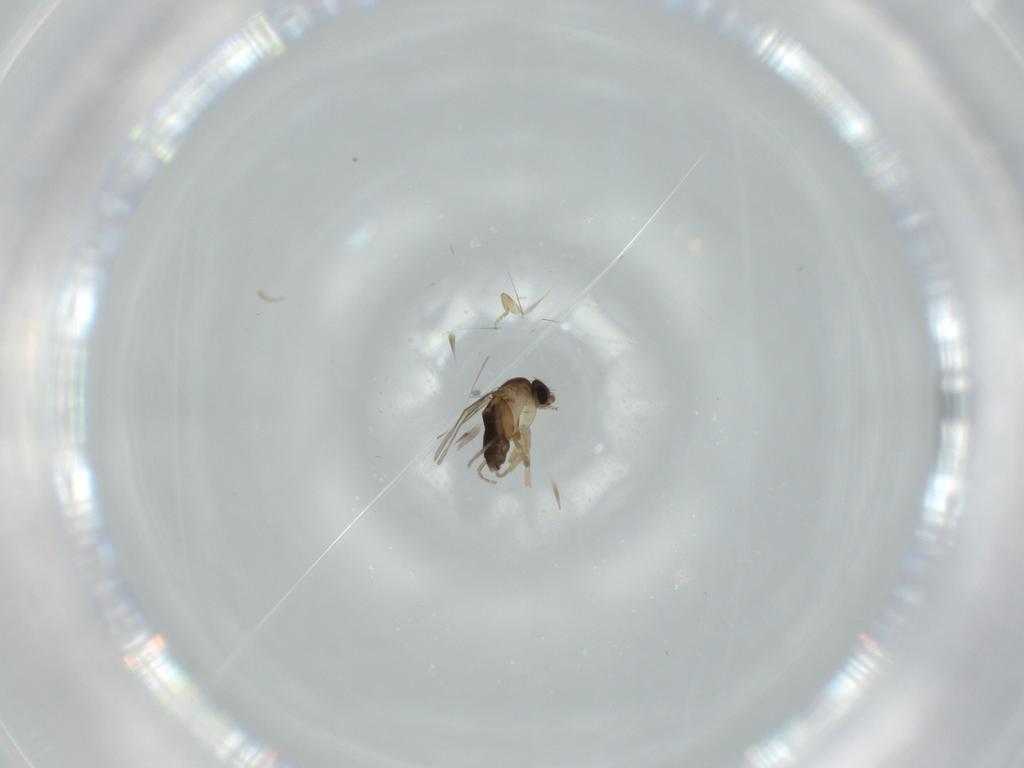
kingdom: Animalia
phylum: Arthropoda
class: Insecta
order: Diptera
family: Phoridae
